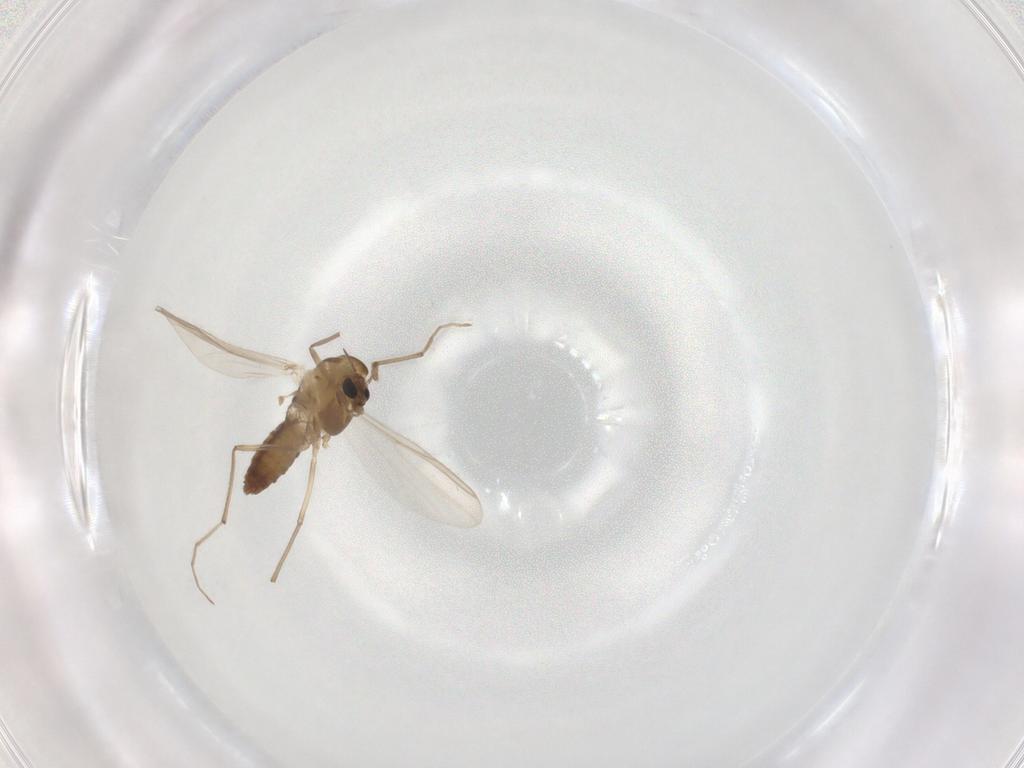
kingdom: Animalia
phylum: Arthropoda
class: Insecta
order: Diptera
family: Chironomidae
